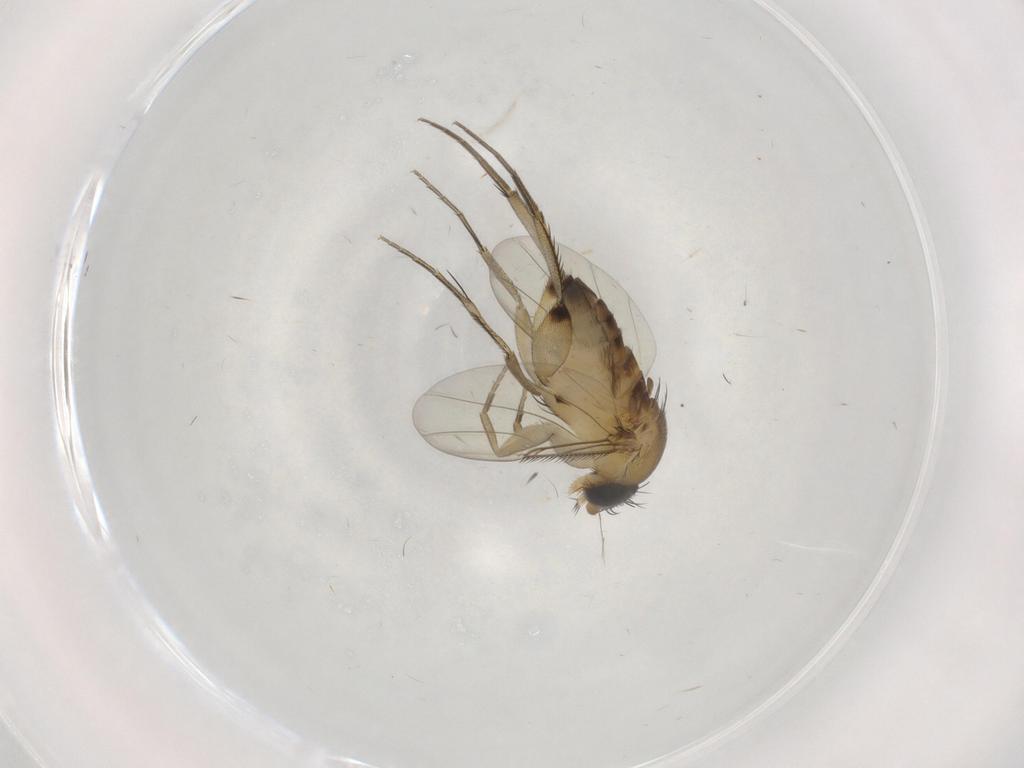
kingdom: Animalia
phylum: Arthropoda
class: Insecta
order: Diptera
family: Phoridae
